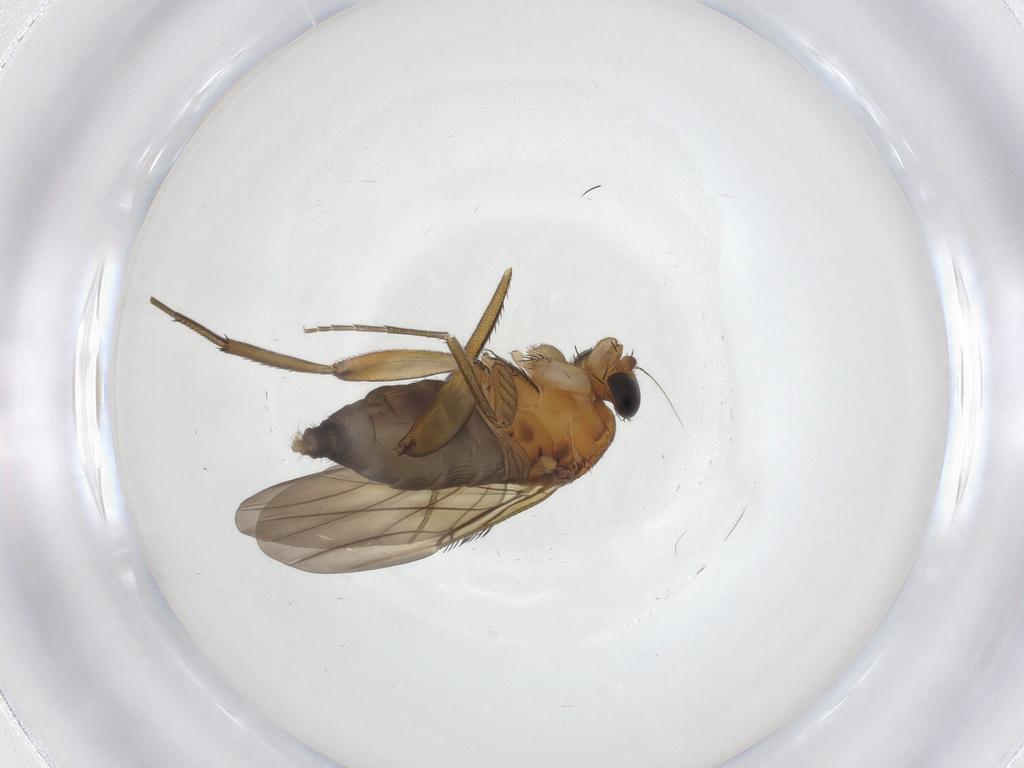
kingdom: Animalia
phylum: Arthropoda
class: Insecta
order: Diptera
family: Phoridae
